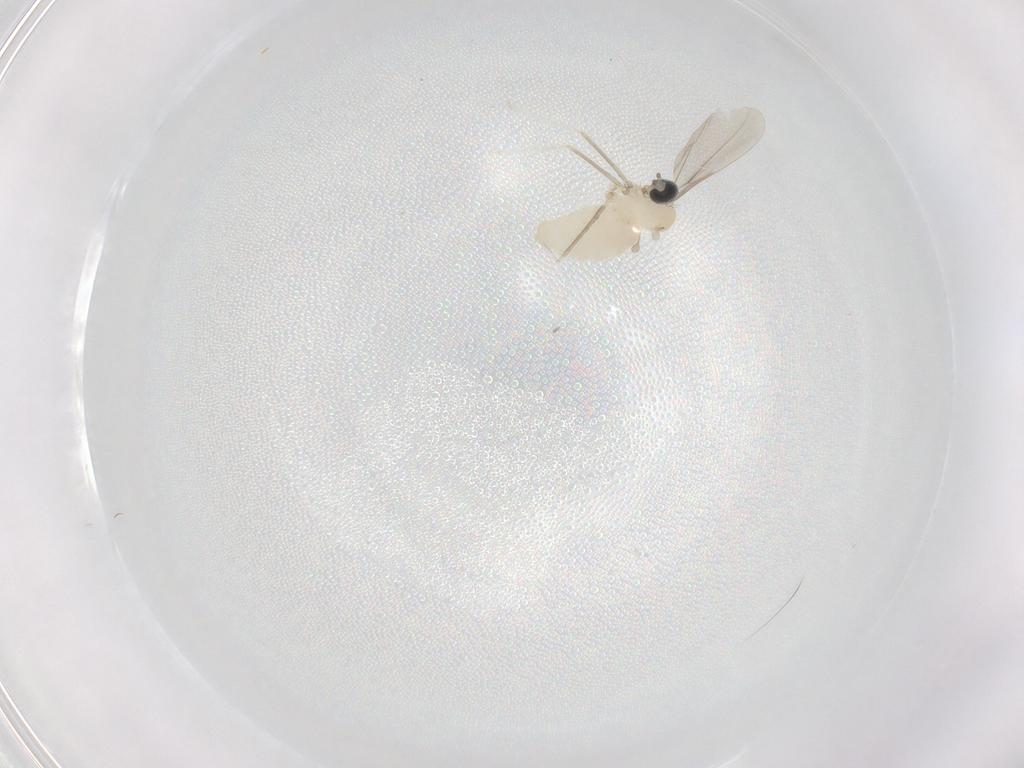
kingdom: Animalia
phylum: Arthropoda
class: Insecta
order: Diptera
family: Cecidomyiidae
